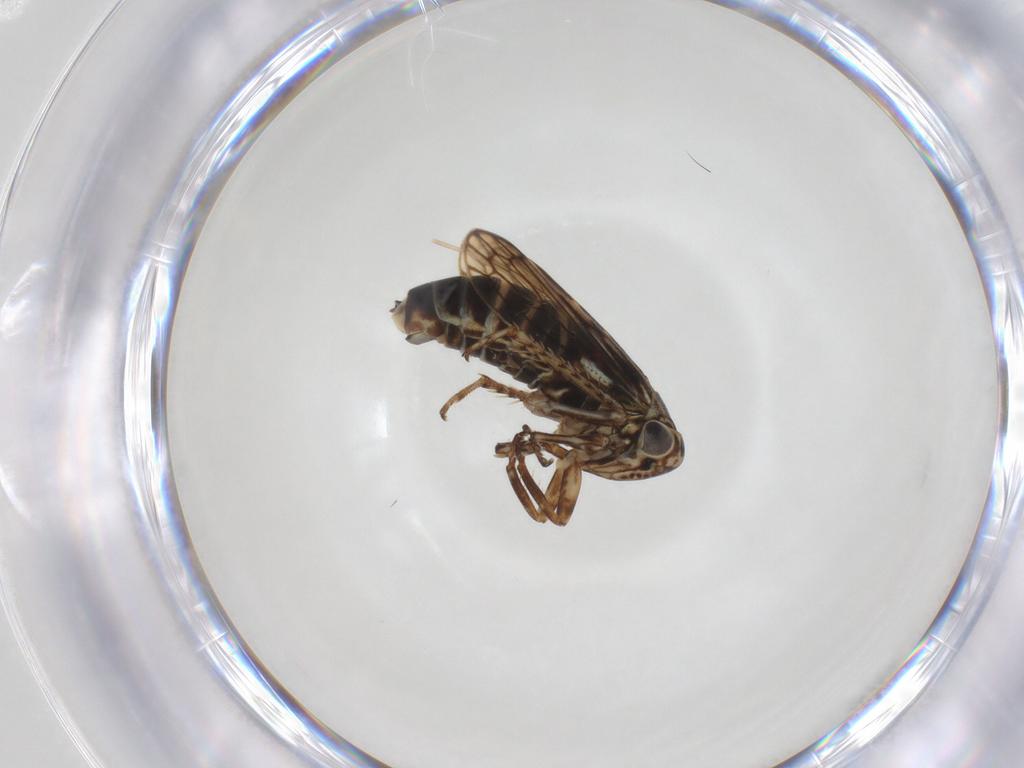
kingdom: Animalia
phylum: Arthropoda
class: Insecta
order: Hemiptera
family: Cicadellidae
